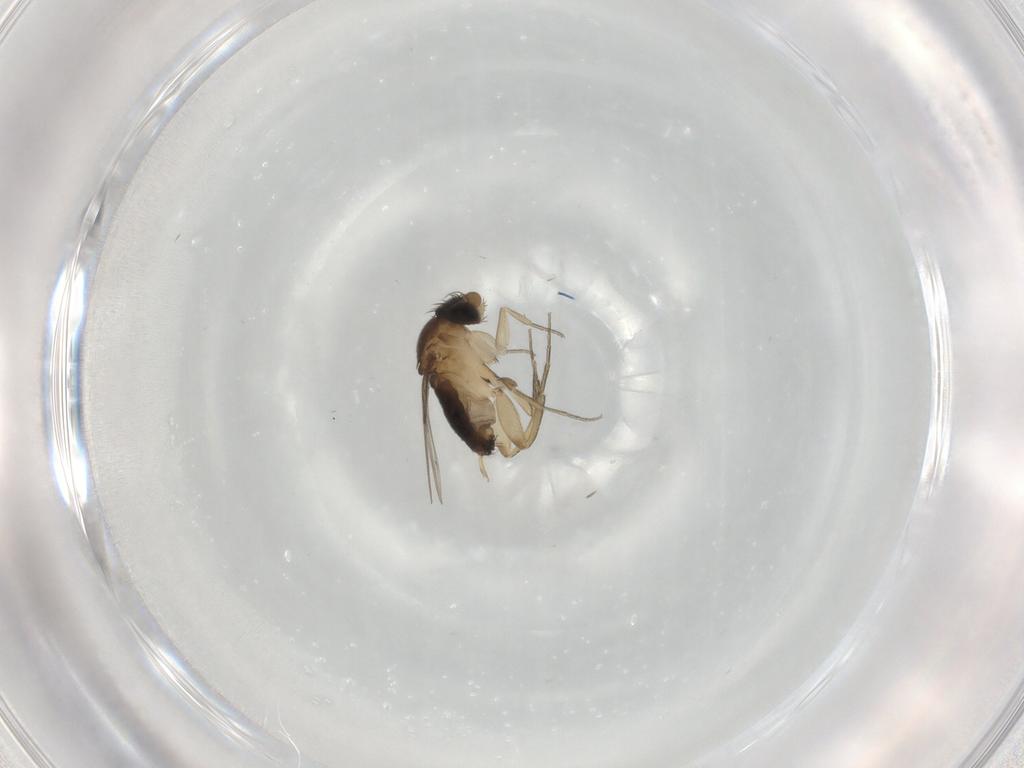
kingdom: Animalia
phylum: Arthropoda
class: Insecta
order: Diptera
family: Phoridae
